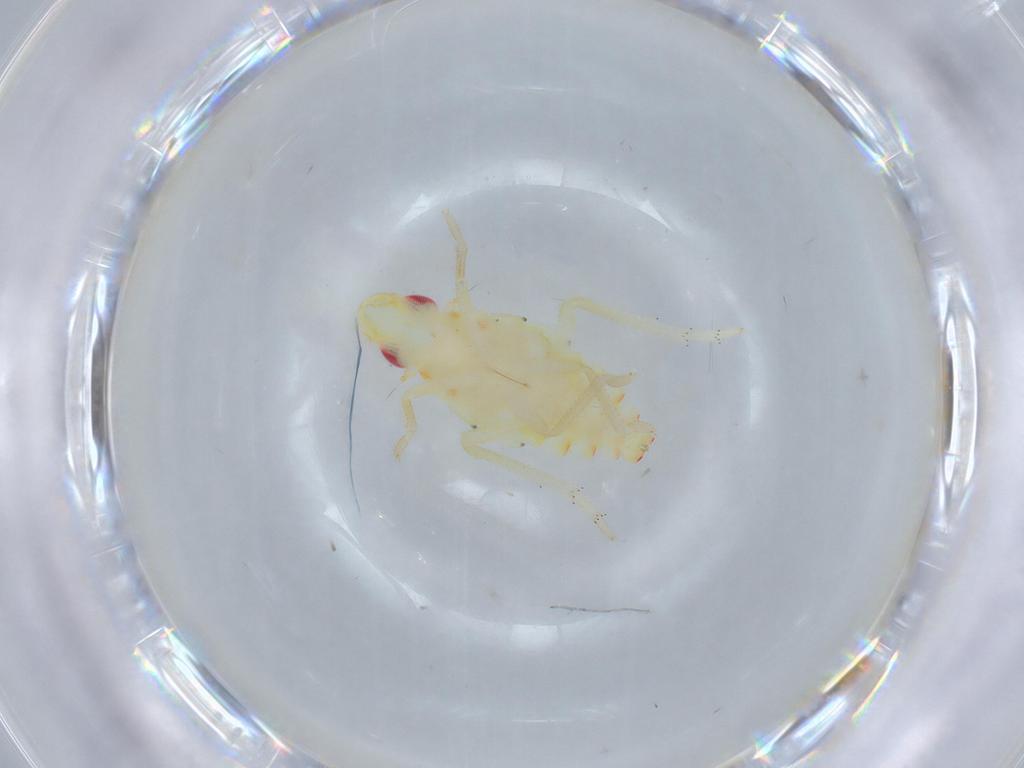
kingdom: Animalia
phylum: Arthropoda
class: Insecta
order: Hemiptera
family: Tropiduchidae
